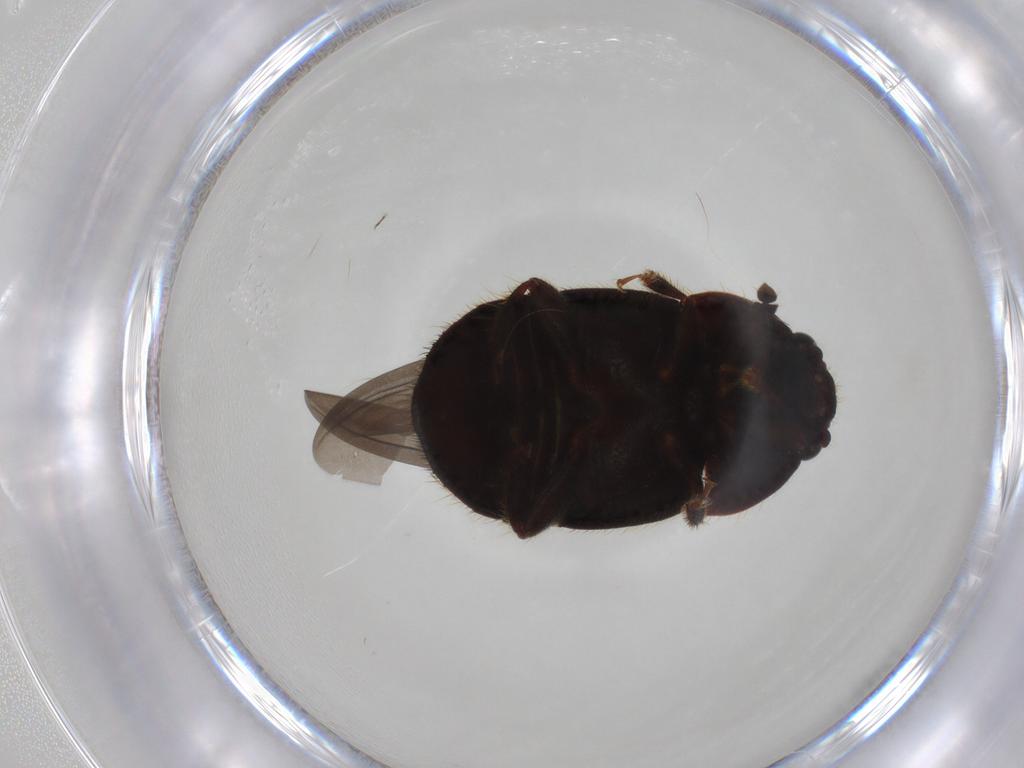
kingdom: Animalia
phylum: Arthropoda
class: Insecta
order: Coleoptera
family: Nitidulidae
